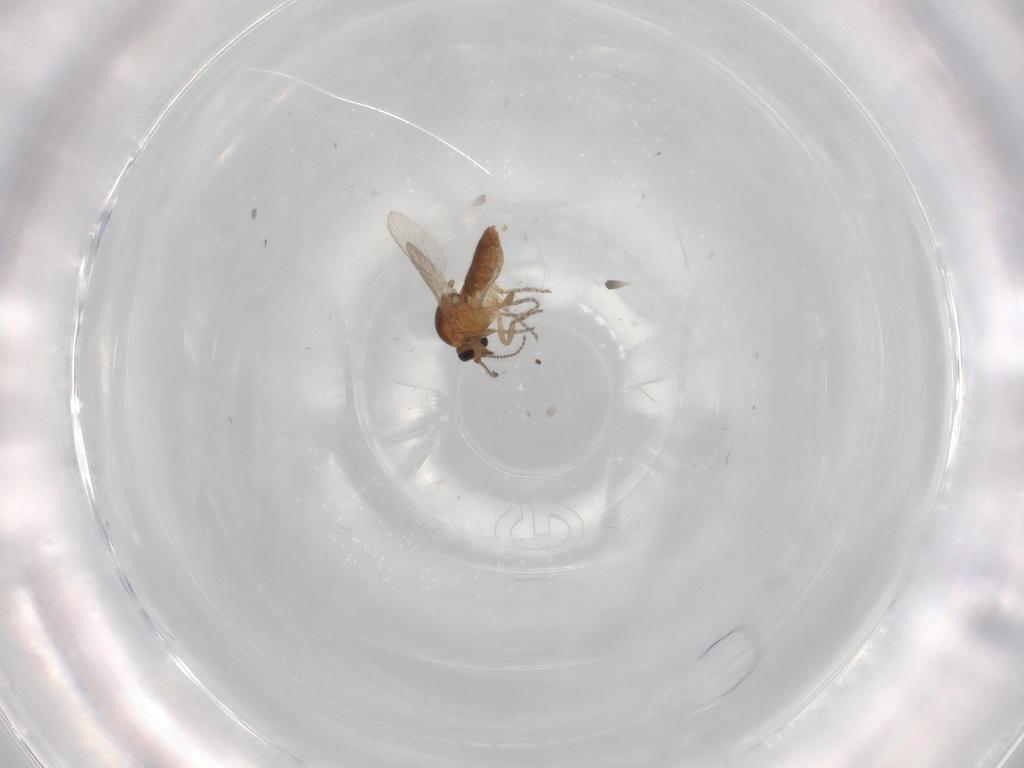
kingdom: Animalia
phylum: Arthropoda
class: Insecta
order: Diptera
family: Ceratopogonidae
